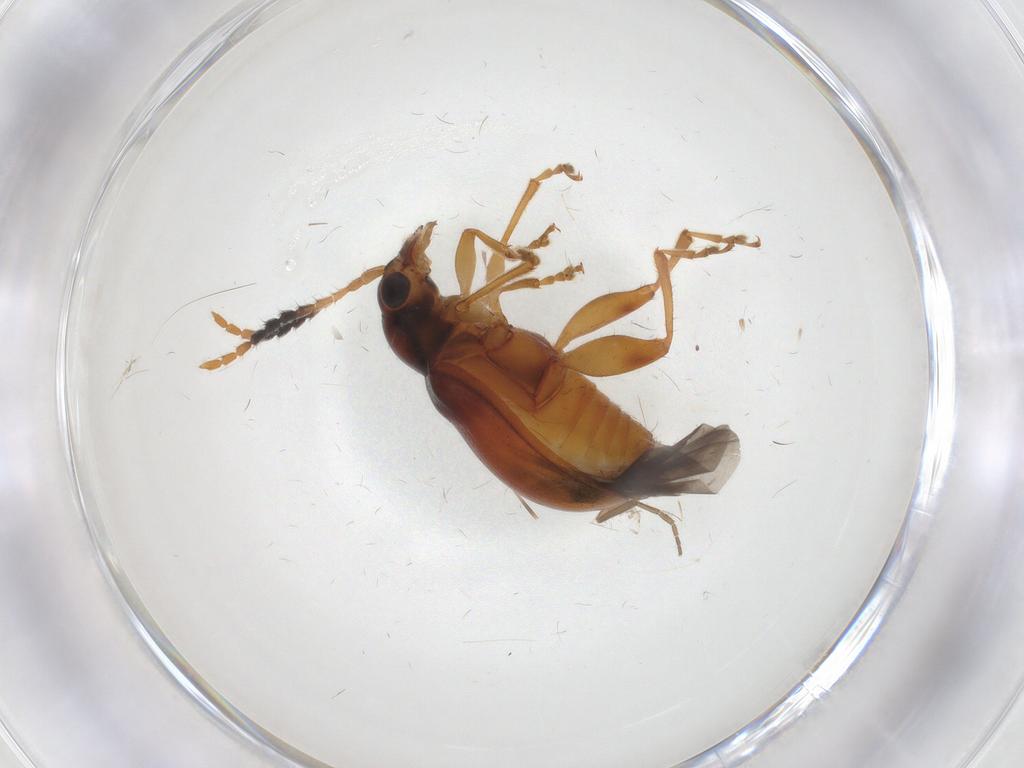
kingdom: Animalia
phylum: Arthropoda
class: Insecta
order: Coleoptera
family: Chrysomelidae
